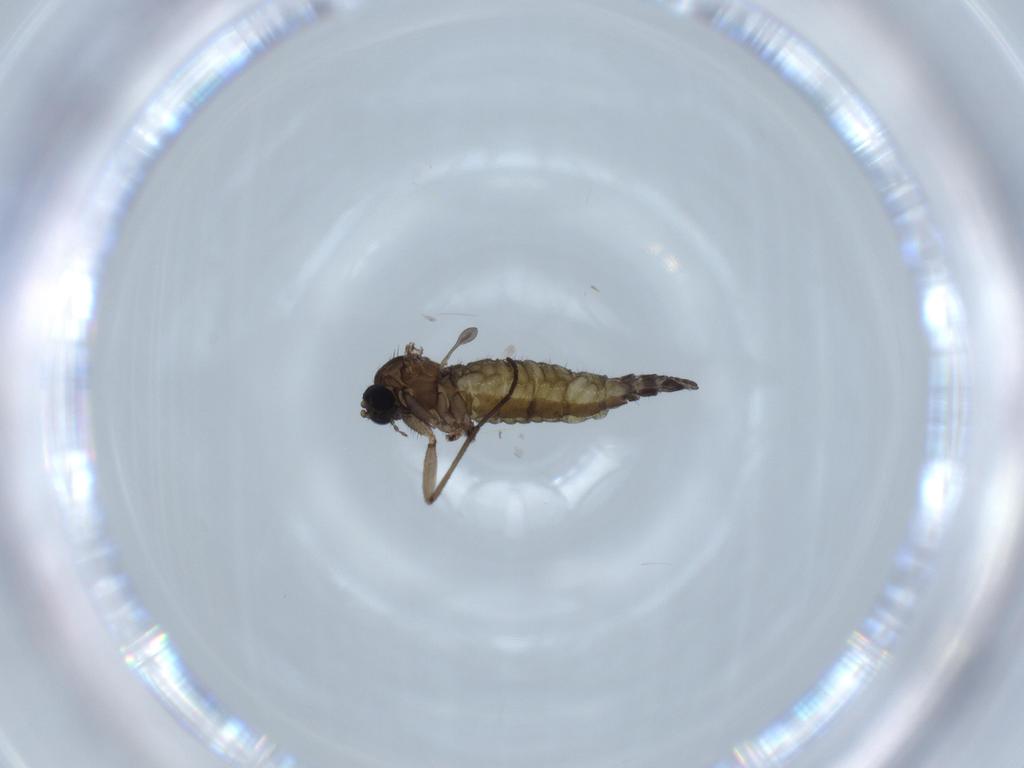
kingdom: Animalia
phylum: Arthropoda
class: Insecta
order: Diptera
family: Sciaridae
